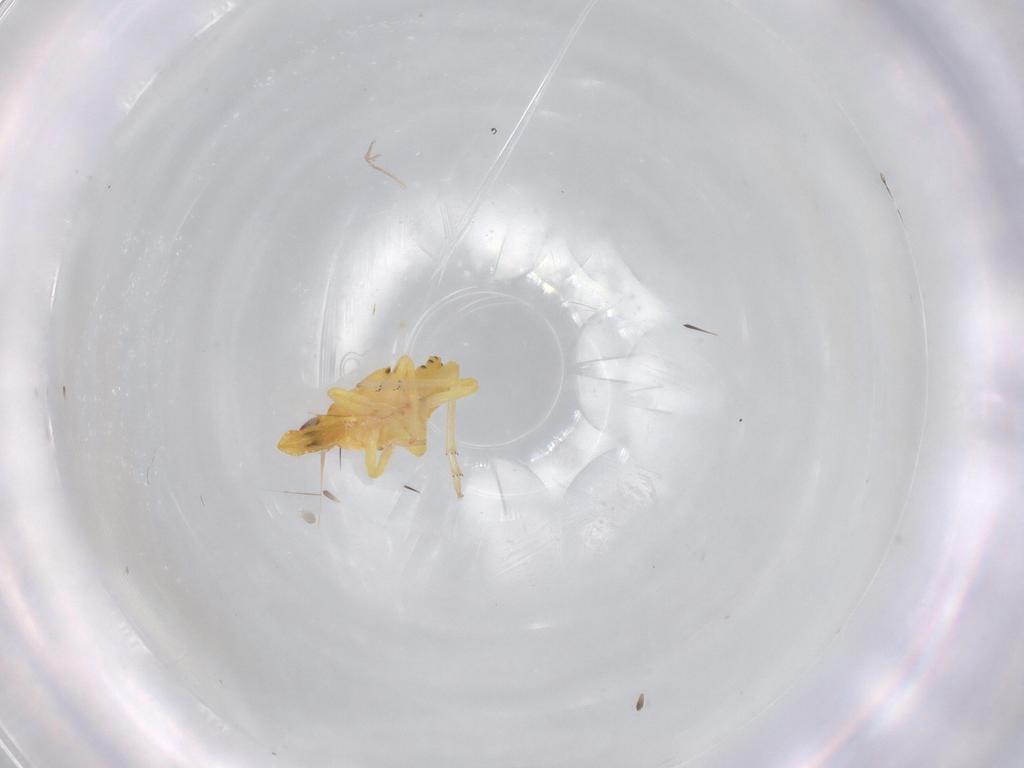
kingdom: Animalia
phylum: Arthropoda
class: Insecta
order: Hemiptera
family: Tropiduchidae
